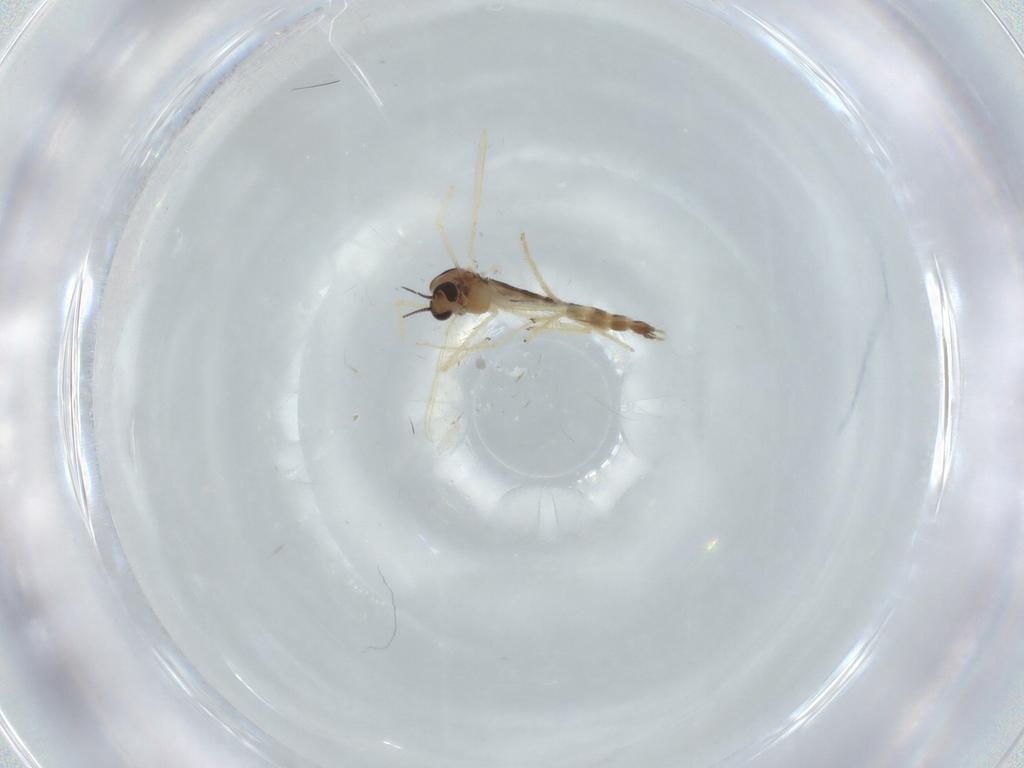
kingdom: Animalia
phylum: Arthropoda
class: Insecta
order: Diptera
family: Chironomidae
